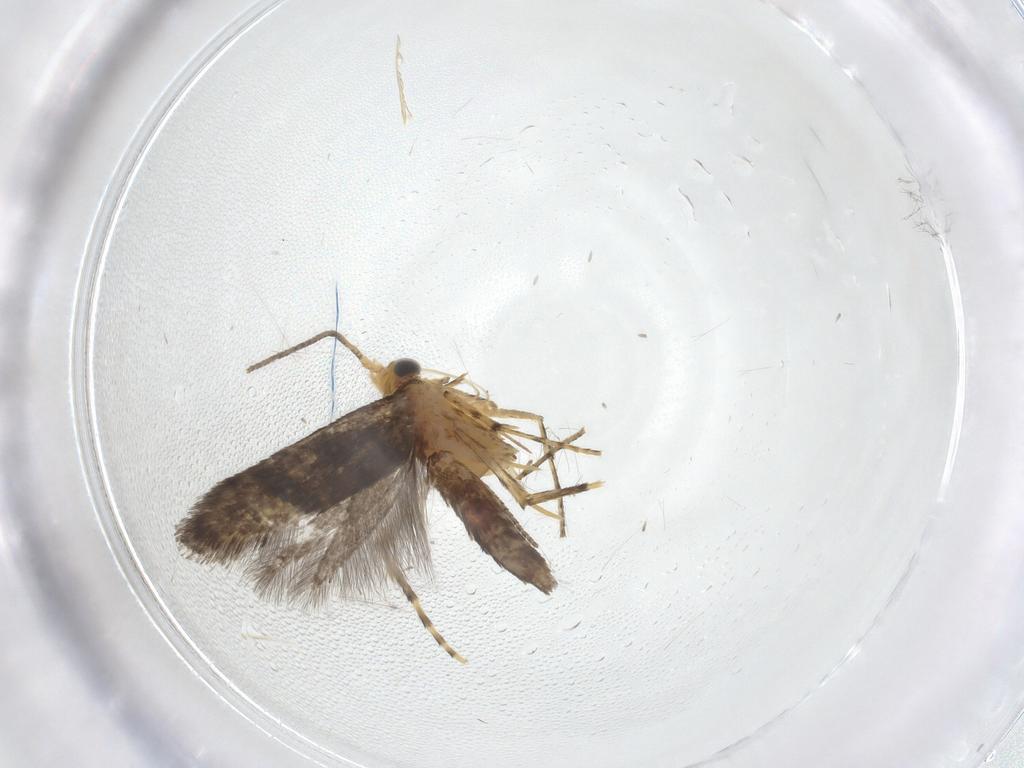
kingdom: Animalia
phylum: Arthropoda
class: Insecta
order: Lepidoptera
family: Argyresthiidae
